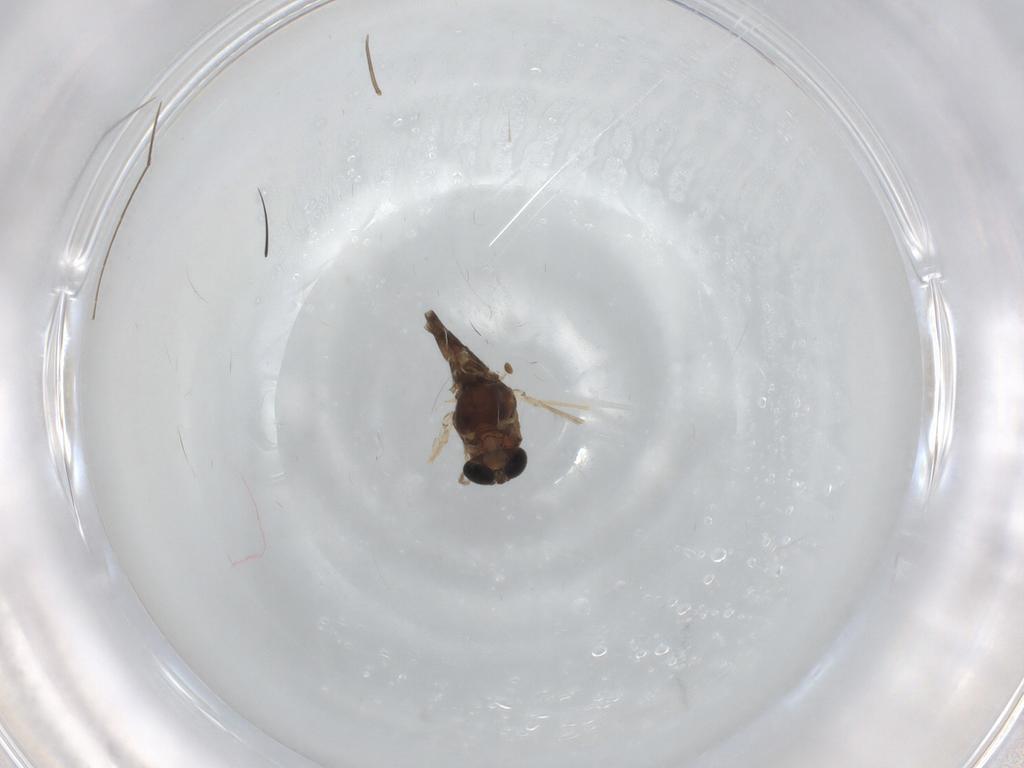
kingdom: Animalia
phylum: Arthropoda
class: Insecta
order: Diptera
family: Chironomidae
